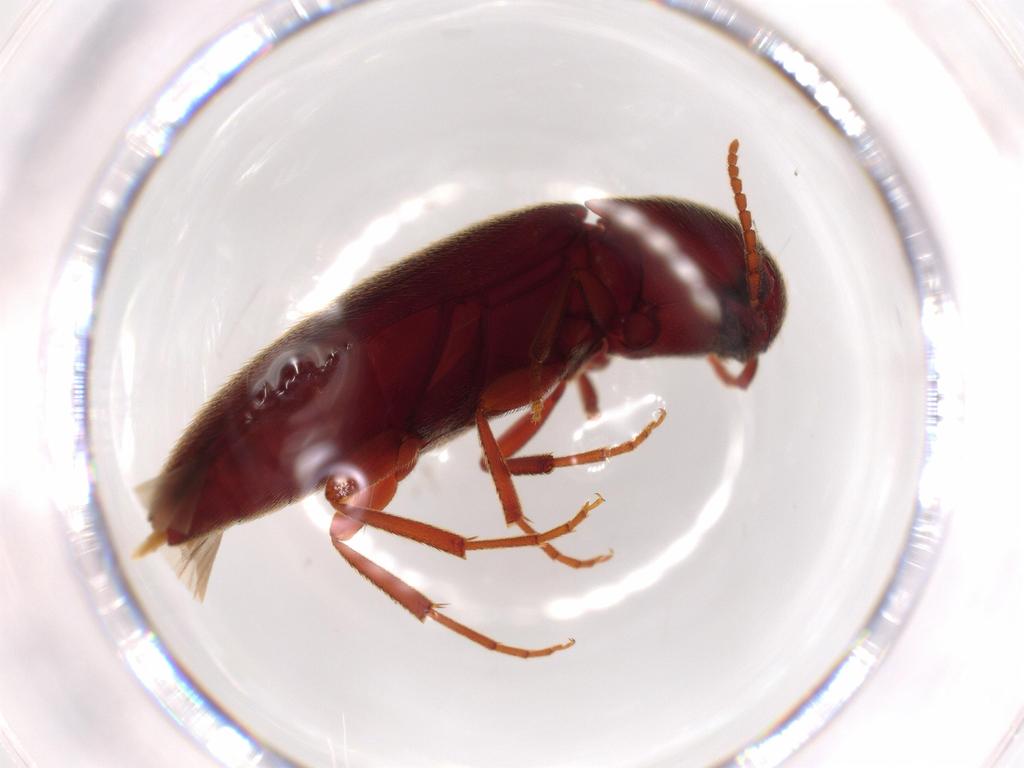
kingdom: Animalia
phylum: Arthropoda
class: Insecta
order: Coleoptera
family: Eucnemidae
